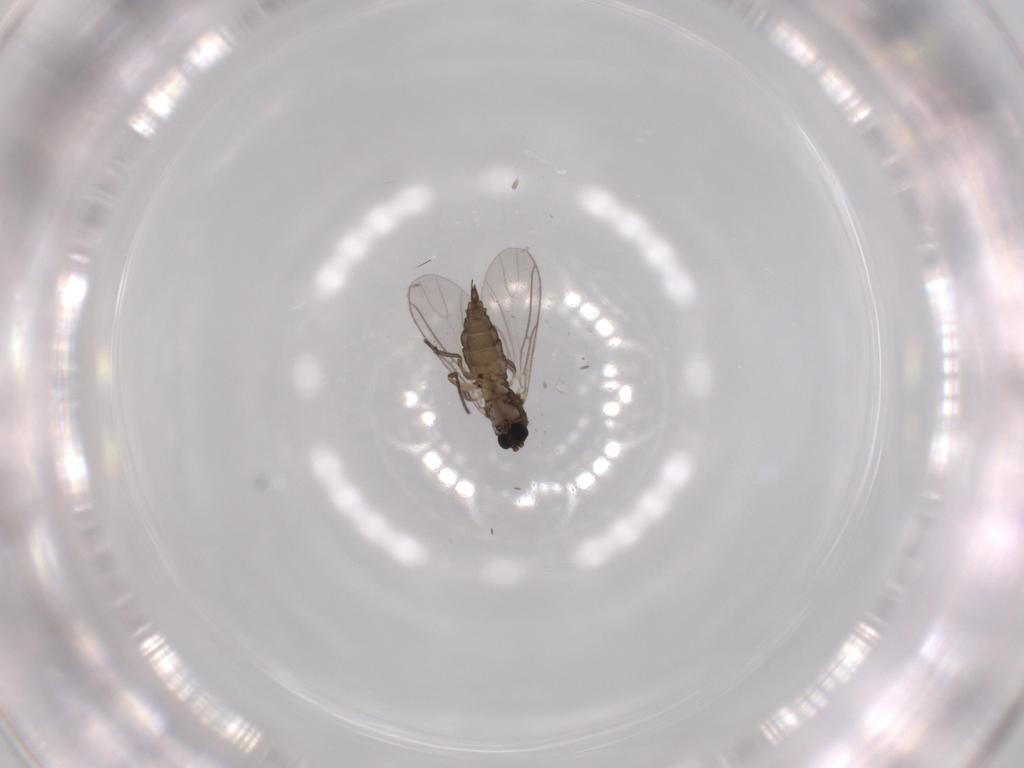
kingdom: Animalia
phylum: Arthropoda
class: Insecta
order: Diptera
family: Sciaridae
